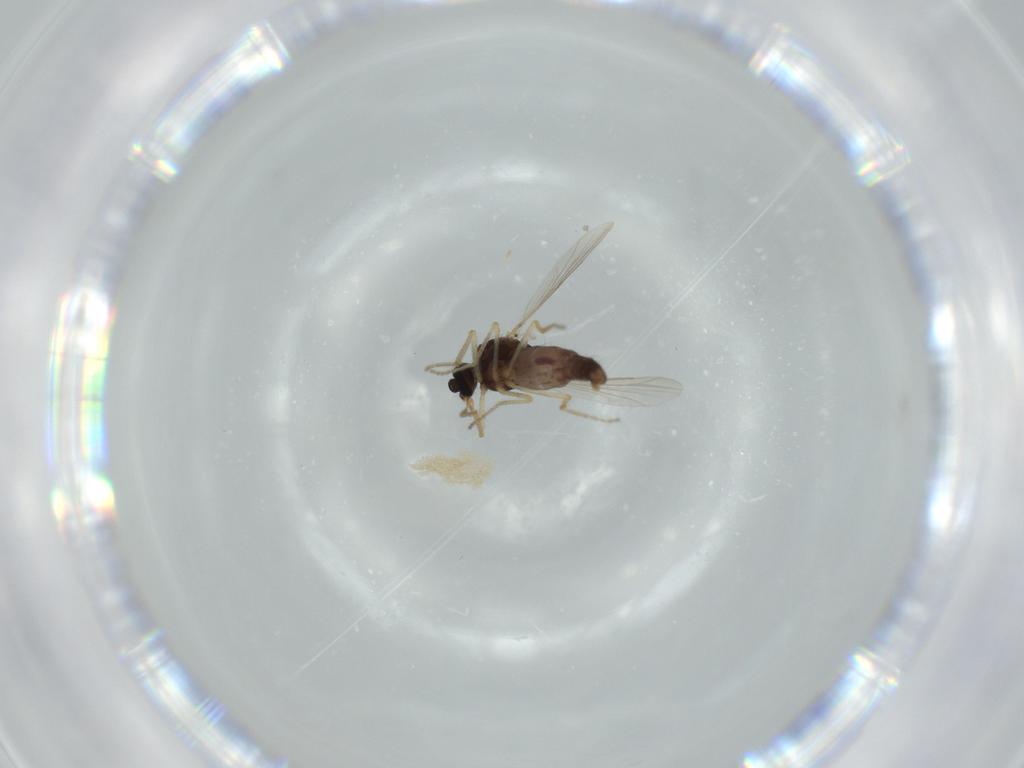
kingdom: Animalia
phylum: Arthropoda
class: Insecta
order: Diptera
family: Ceratopogonidae
